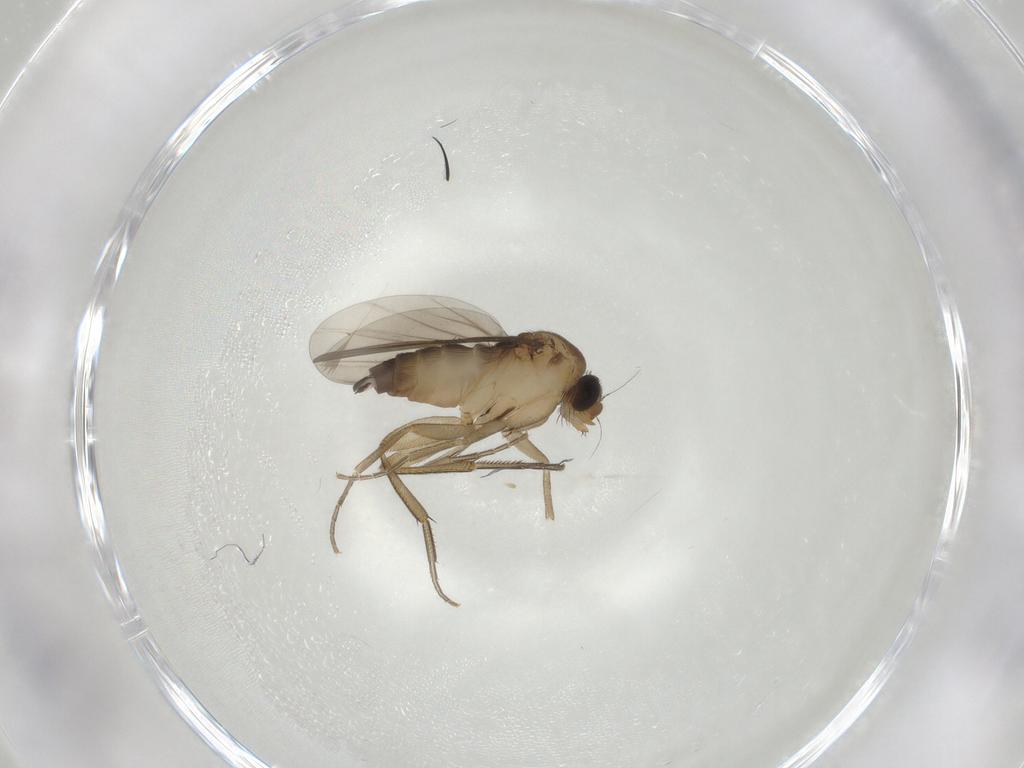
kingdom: Animalia
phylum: Arthropoda
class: Insecta
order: Diptera
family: Phoridae
